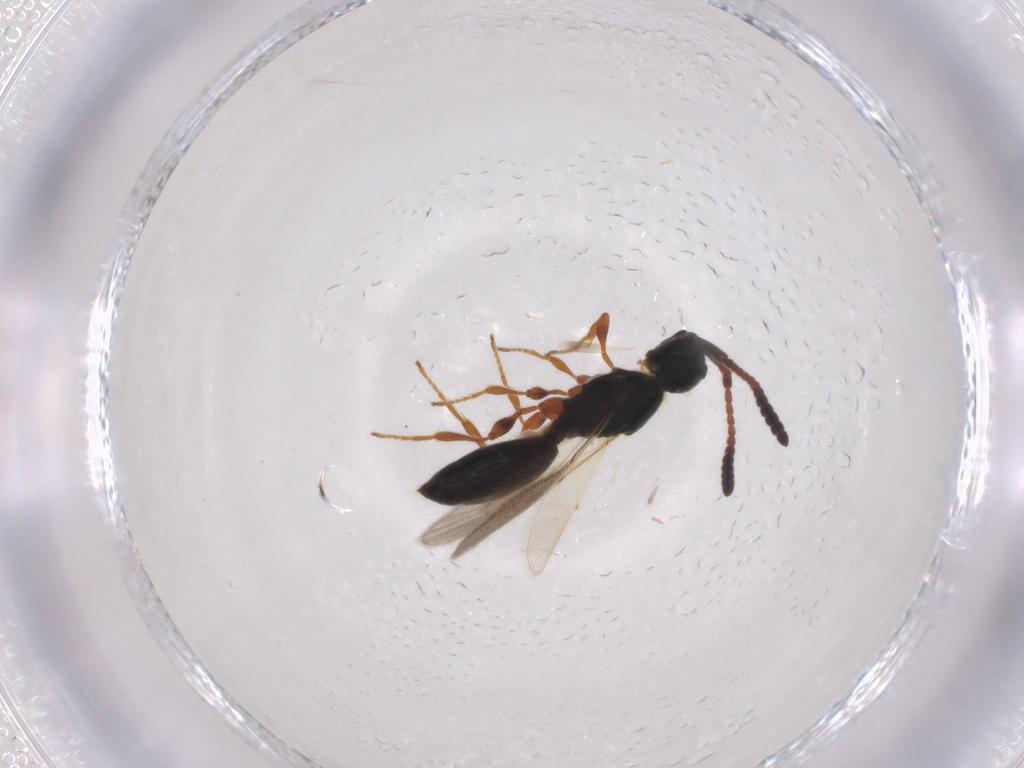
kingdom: Animalia
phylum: Arthropoda
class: Insecta
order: Hymenoptera
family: Diapriidae
